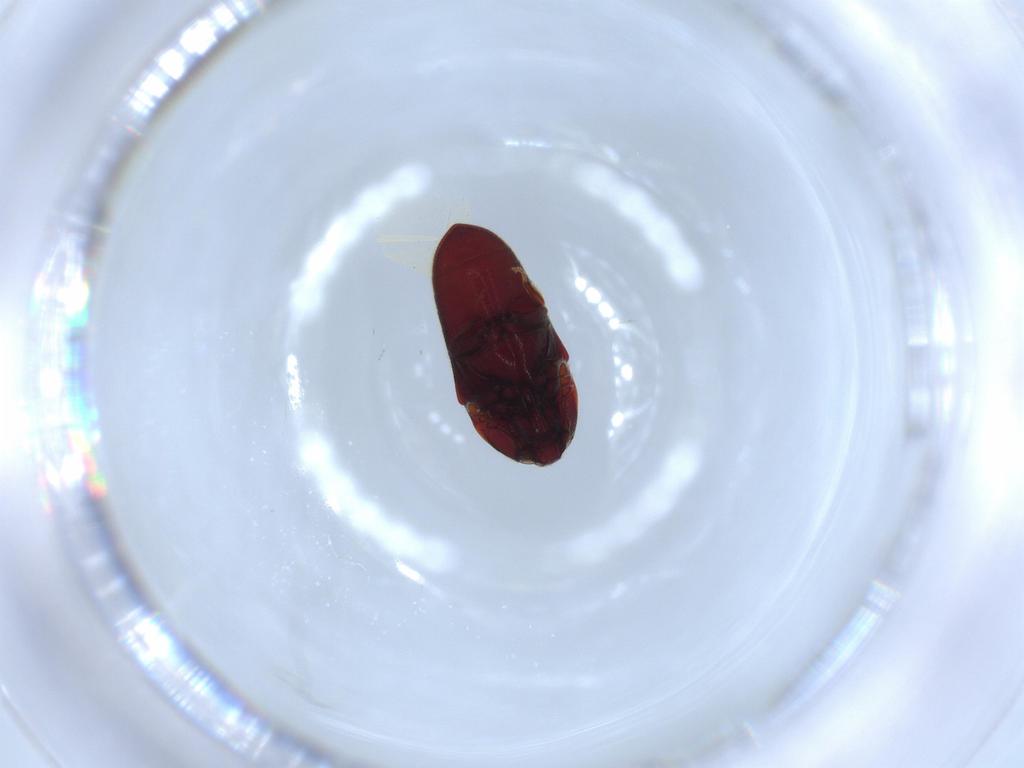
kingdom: Animalia
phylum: Arthropoda
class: Insecta
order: Coleoptera
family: Throscidae
